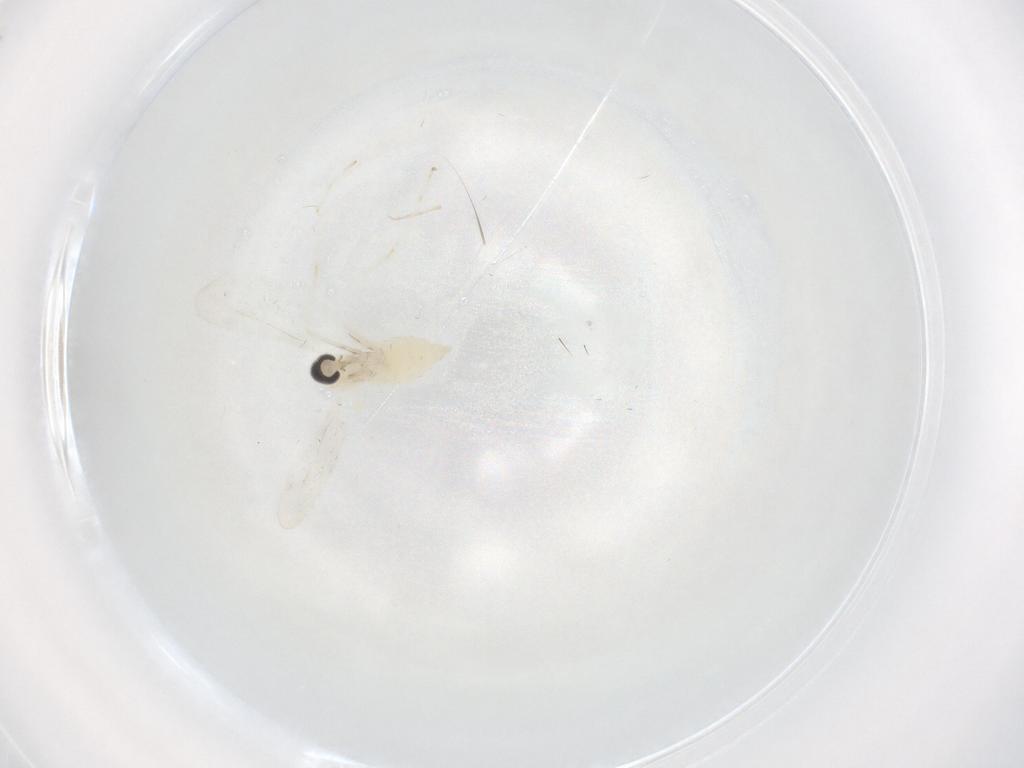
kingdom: Animalia
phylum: Arthropoda
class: Insecta
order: Diptera
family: Cecidomyiidae
